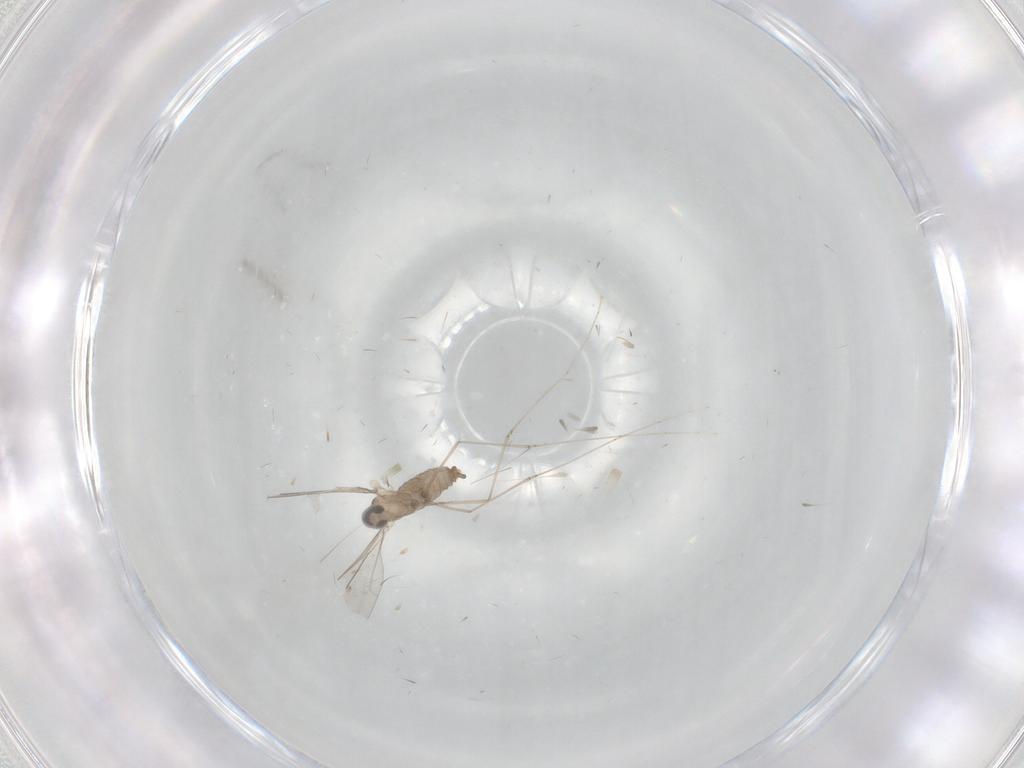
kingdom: Animalia
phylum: Arthropoda
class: Insecta
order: Diptera
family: Cecidomyiidae
